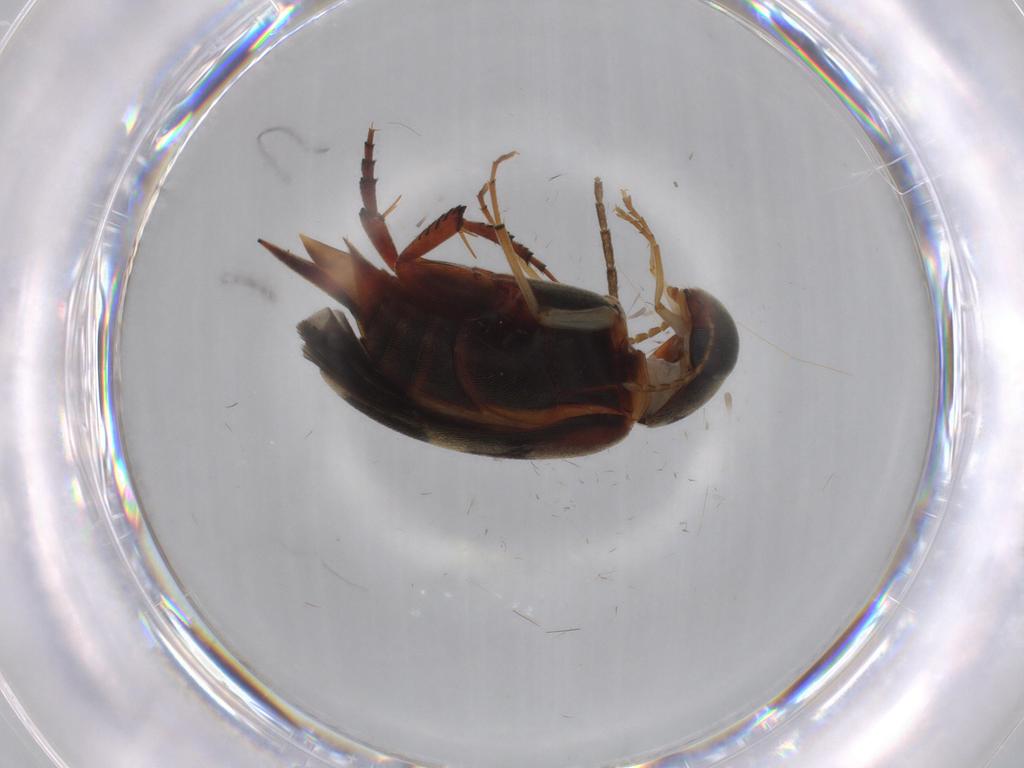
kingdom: Animalia
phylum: Arthropoda
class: Insecta
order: Coleoptera
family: Mordellidae
